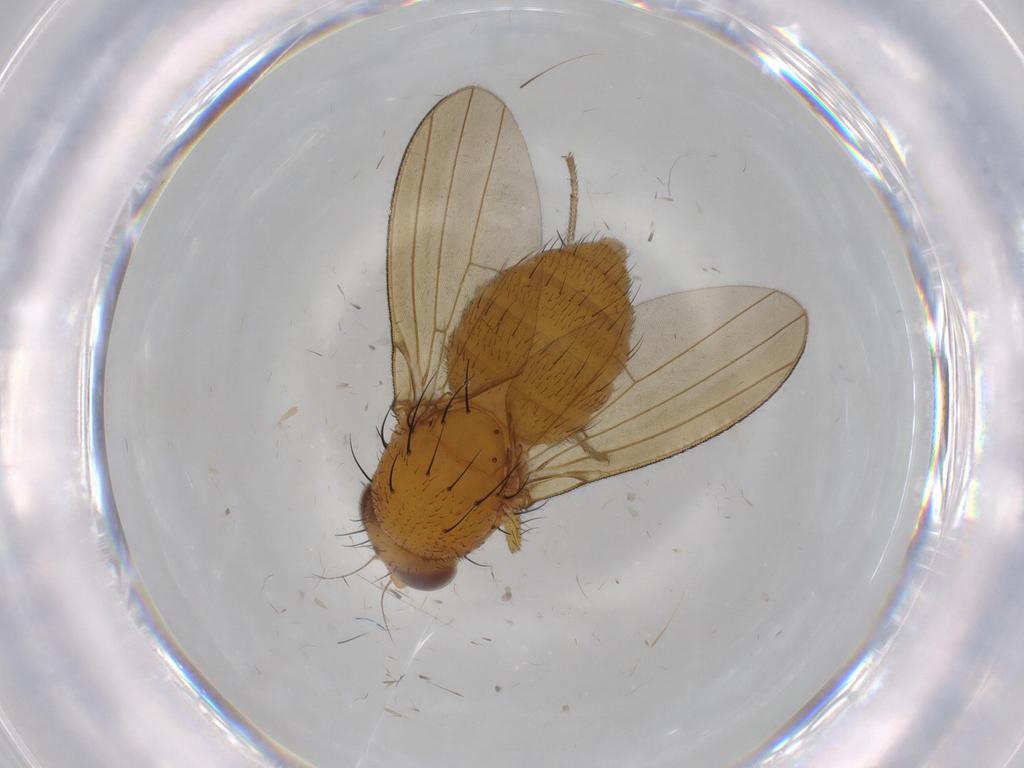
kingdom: Animalia
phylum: Arthropoda
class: Insecta
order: Diptera
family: Lauxaniidae
